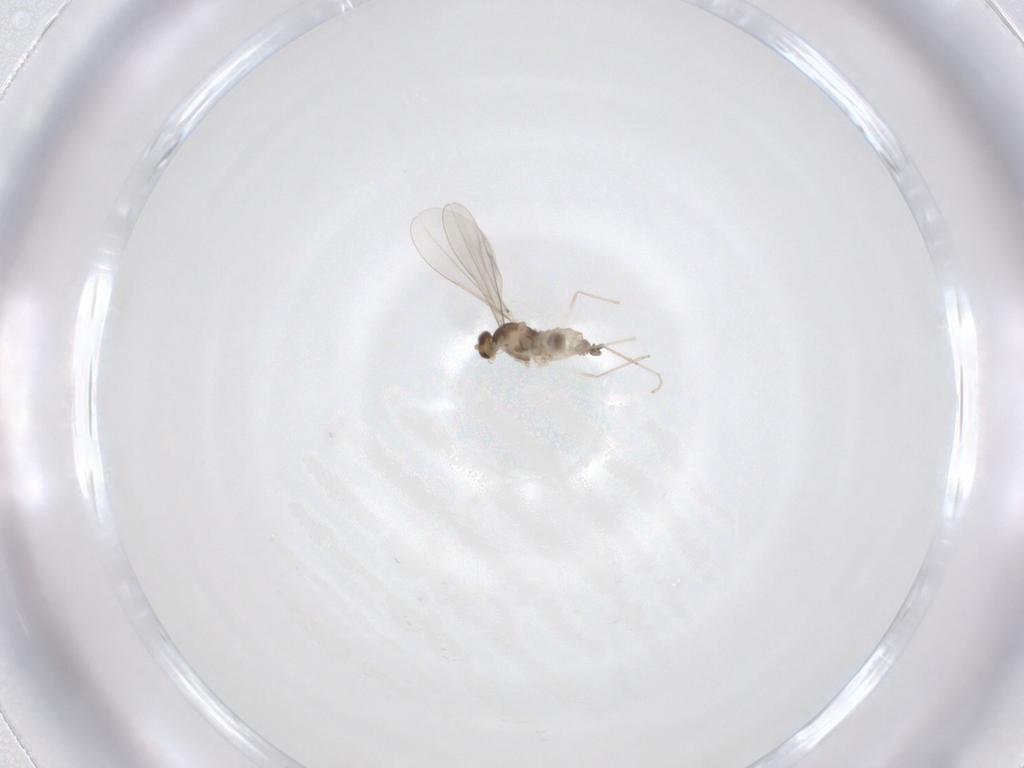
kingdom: Animalia
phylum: Arthropoda
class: Insecta
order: Diptera
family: Cecidomyiidae
